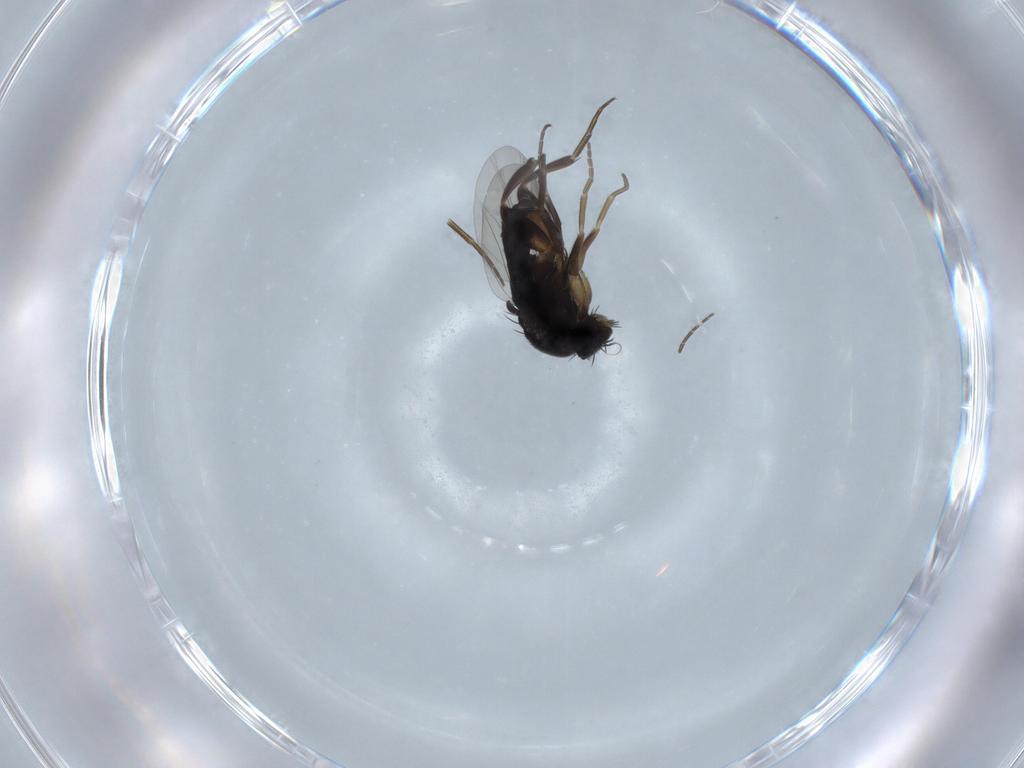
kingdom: Animalia
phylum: Arthropoda
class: Insecta
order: Diptera
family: Phoridae
